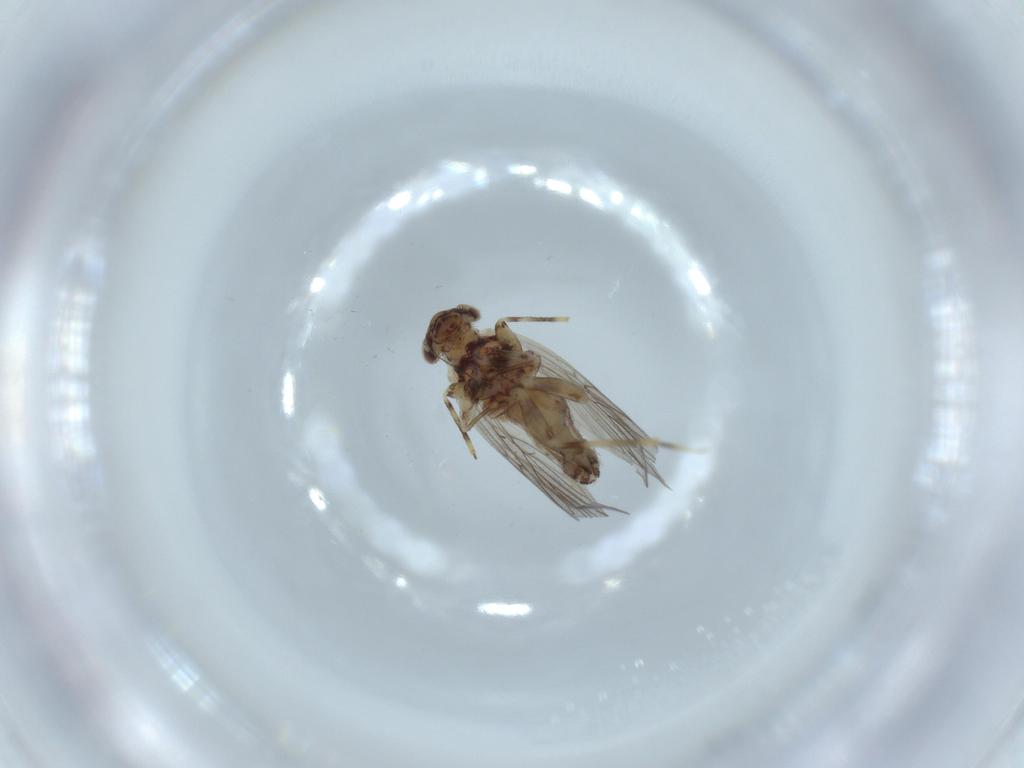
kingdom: Animalia
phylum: Arthropoda
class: Insecta
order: Psocodea
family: Lepidopsocidae
